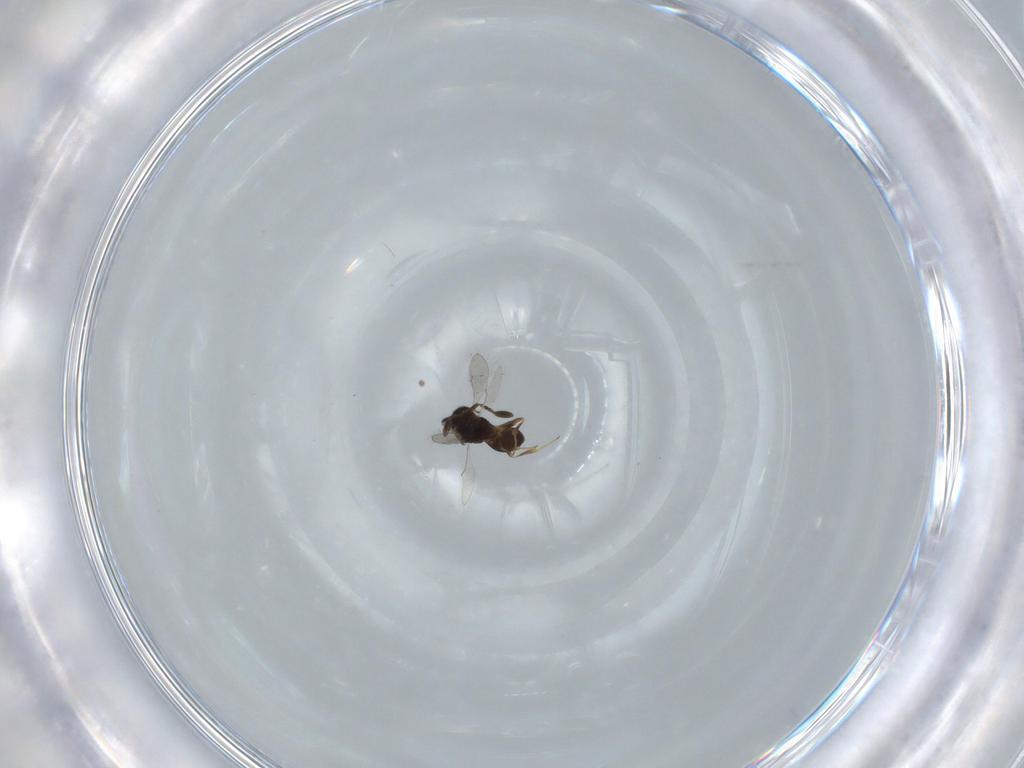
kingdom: Animalia
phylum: Arthropoda
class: Insecta
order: Hymenoptera
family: Scelionidae
